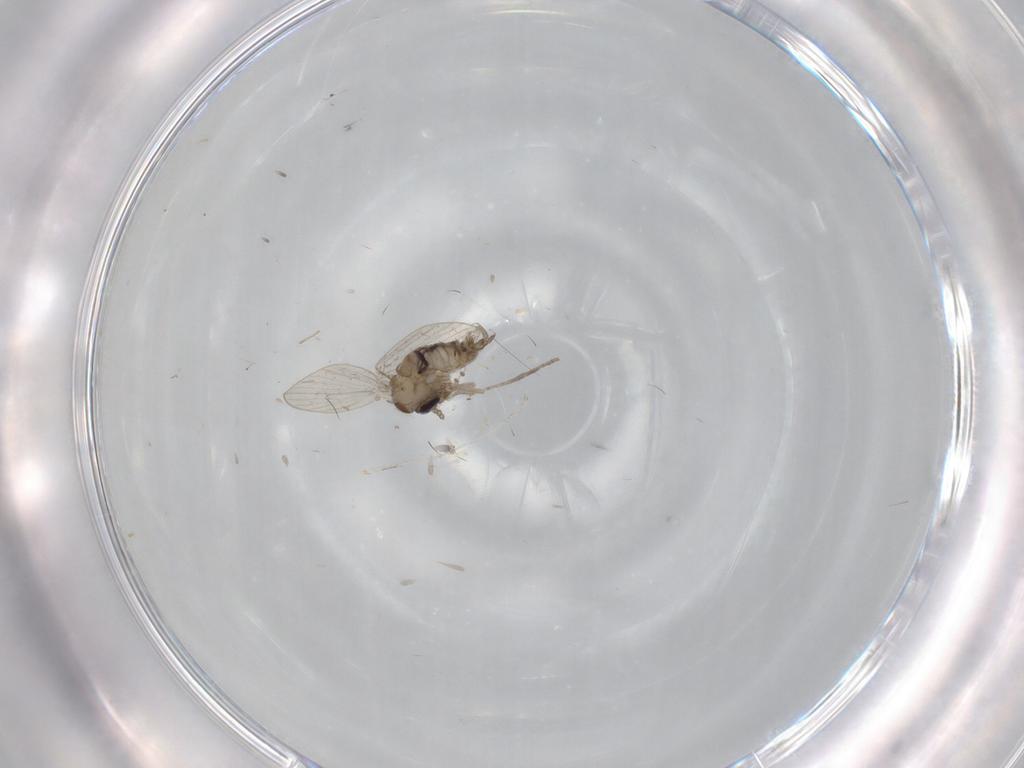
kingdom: Animalia
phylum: Arthropoda
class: Insecta
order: Diptera
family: Psychodidae
